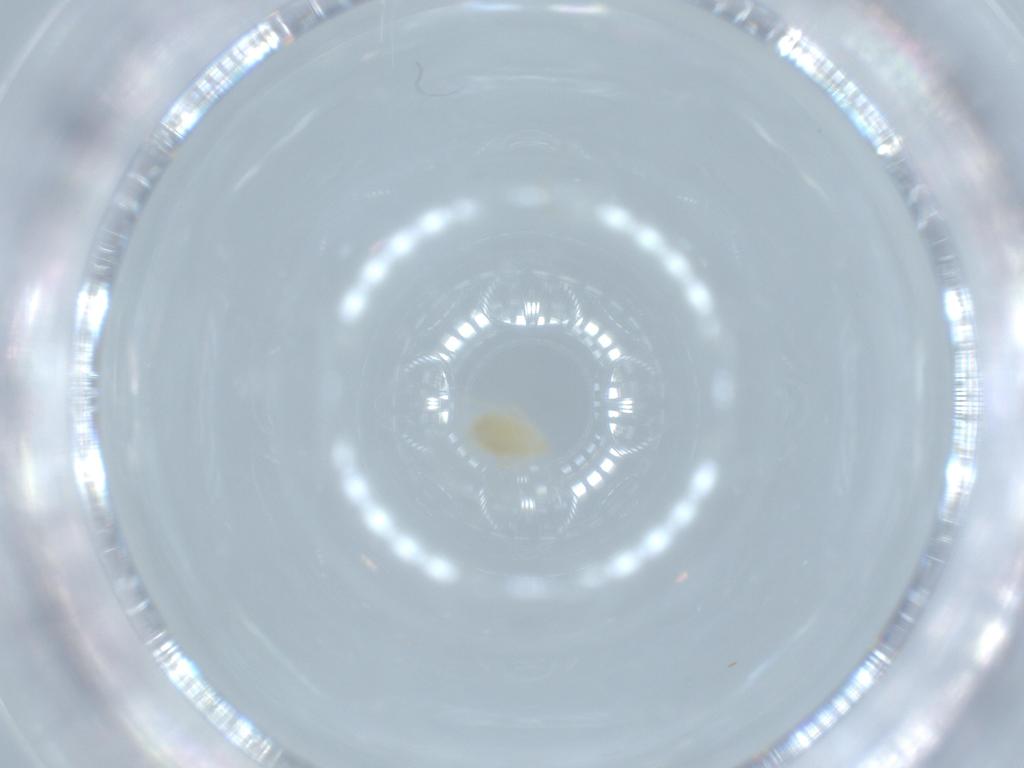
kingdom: Animalia
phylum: Arthropoda
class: Arachnida
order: Trombidiformes
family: Erythraeidae
